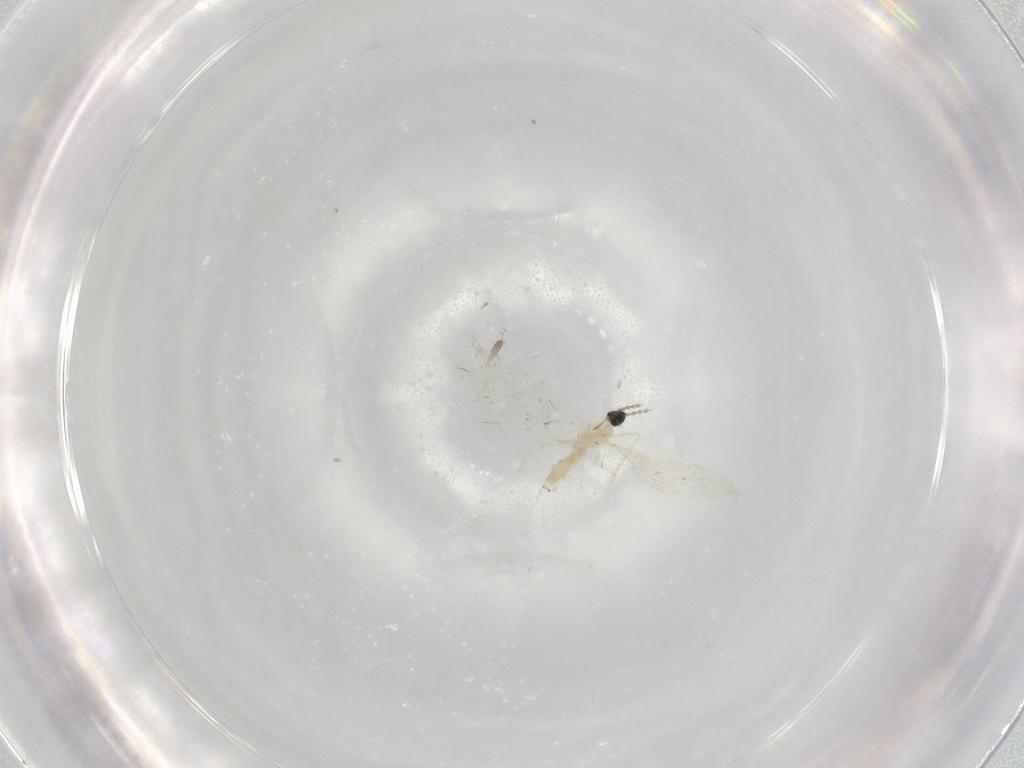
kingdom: Animalia
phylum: Arthropoda
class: Insecta
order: Diptera
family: Cecidomyiidae
